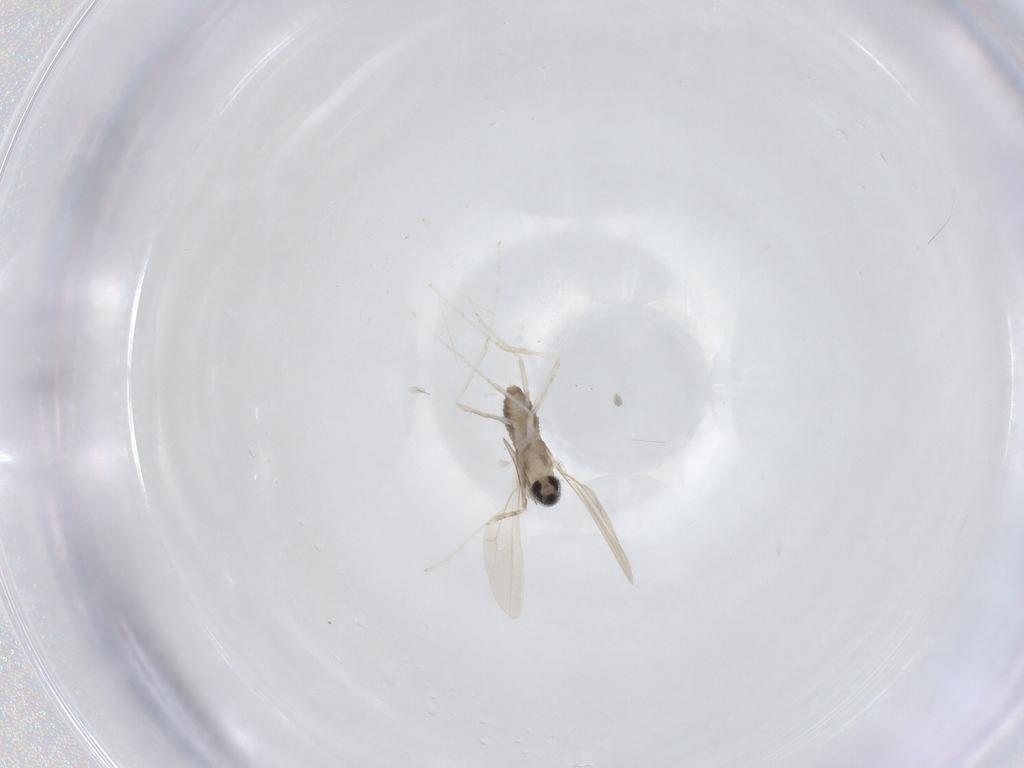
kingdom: Animalia
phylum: Arthropoda
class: Insecta
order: Diptera
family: Cecidomyiidae
